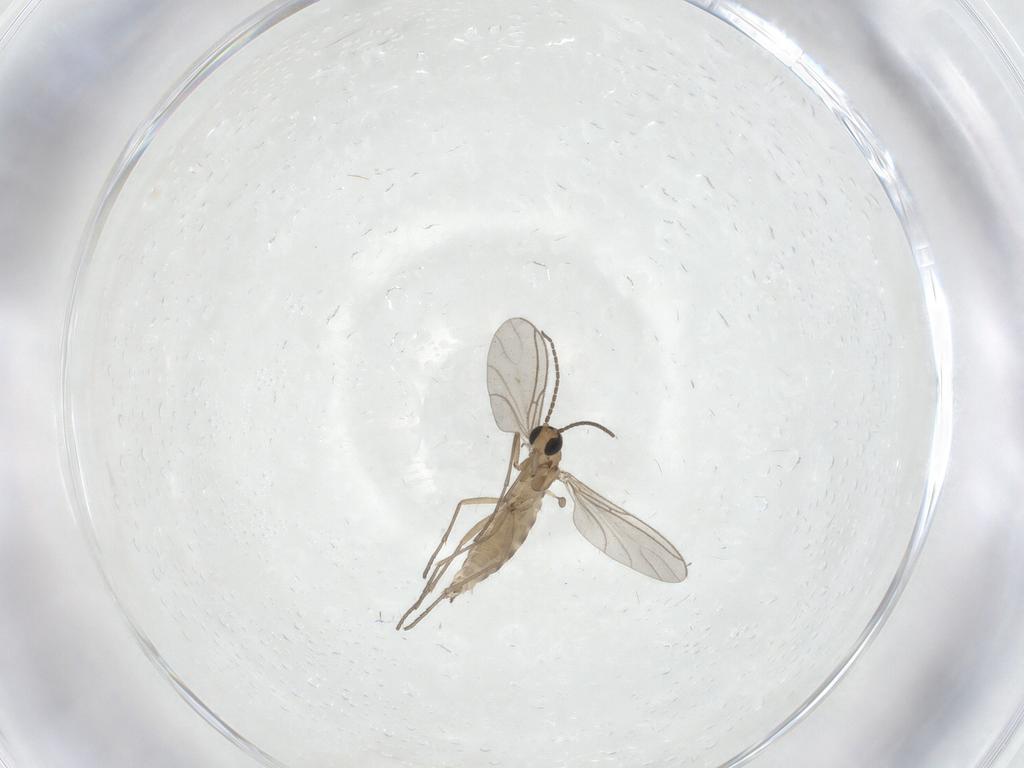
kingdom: Animalia
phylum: Arthropoda
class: Insecta
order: Diptera
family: Sciaridae
